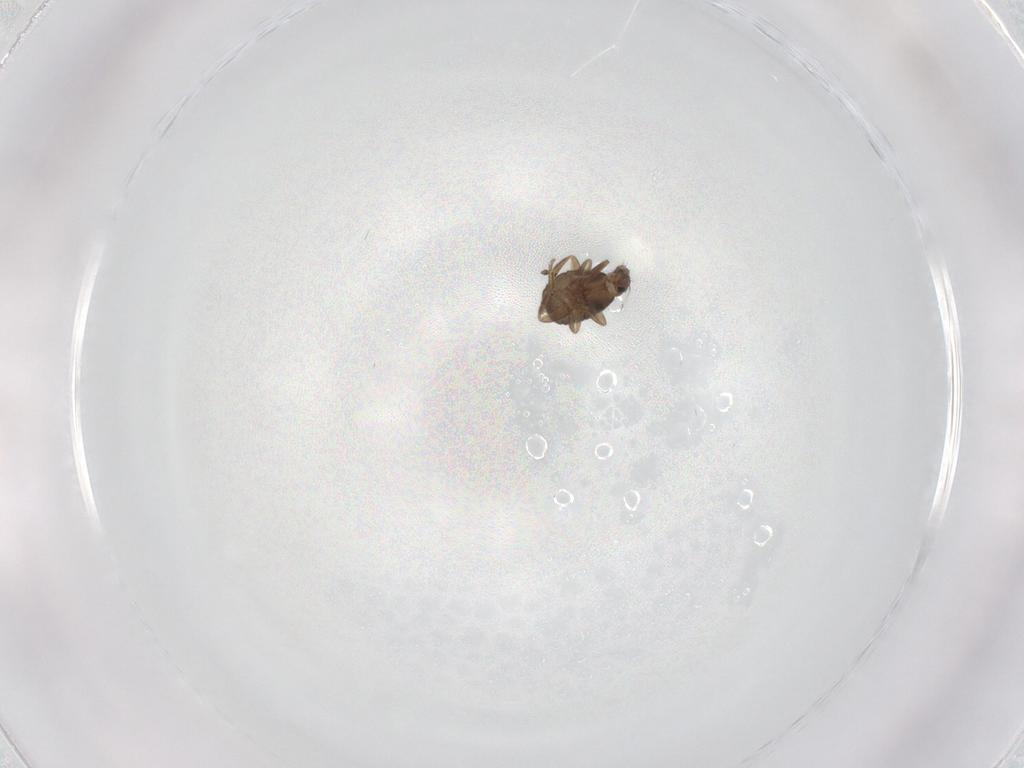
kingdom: Animalia
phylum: Arthropoda
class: Insecta
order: Diptera
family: Phoridae
